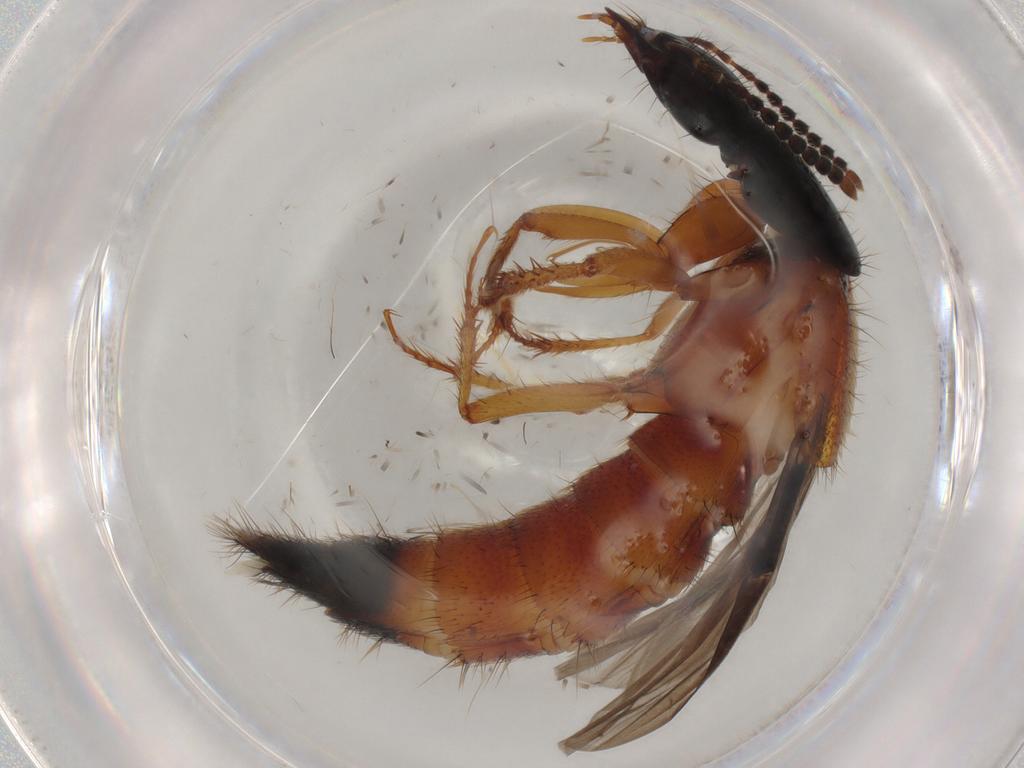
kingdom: Animalia
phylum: Arthropoda
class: Insecta
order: Coleoptera
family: Staphylinidae
